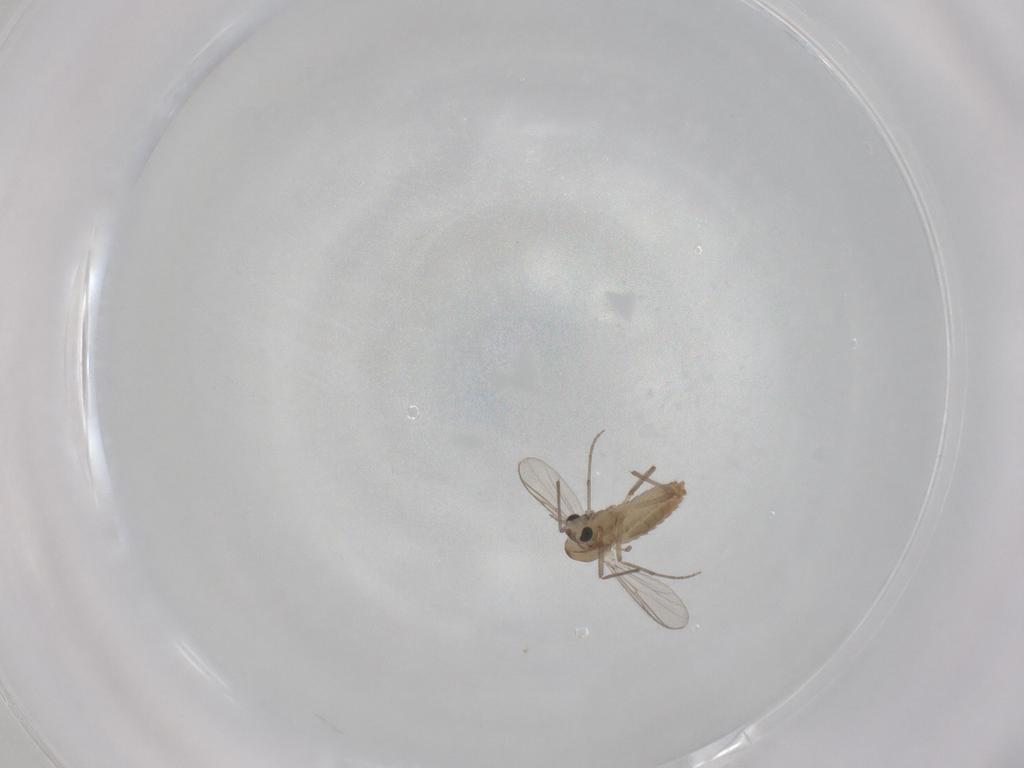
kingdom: Animalia
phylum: Arthropoda
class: Insecta
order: Diptera
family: Chironomidae
